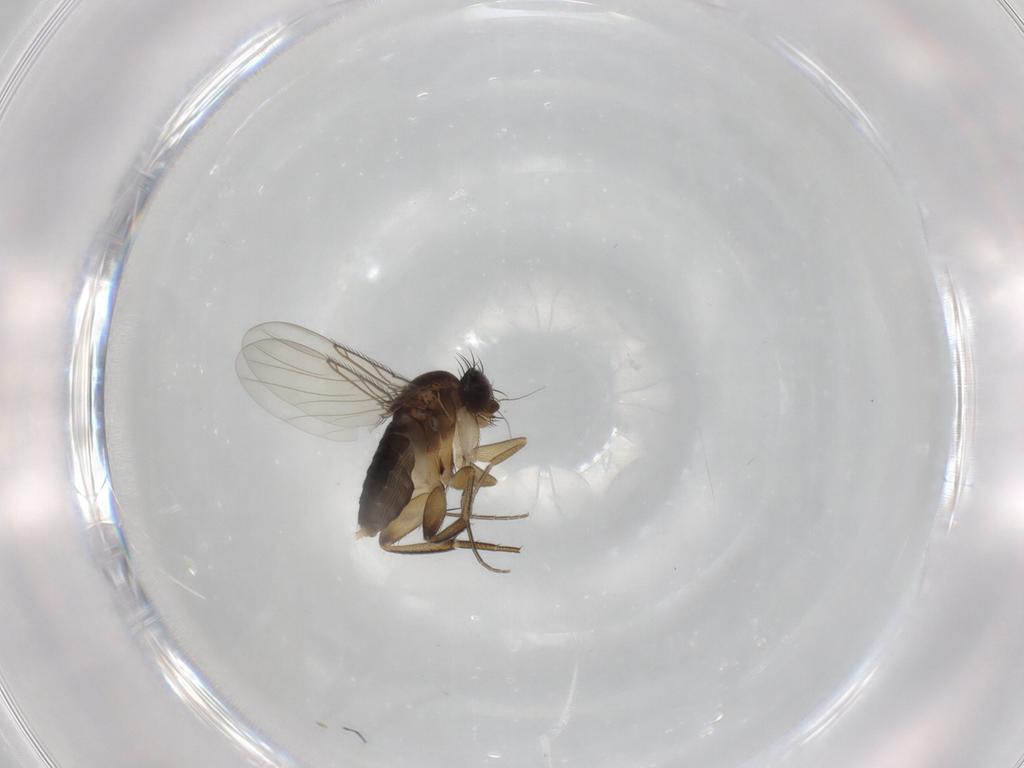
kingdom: Animalia
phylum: Arthropoda
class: Insecta
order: Diptera
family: Phoridae
